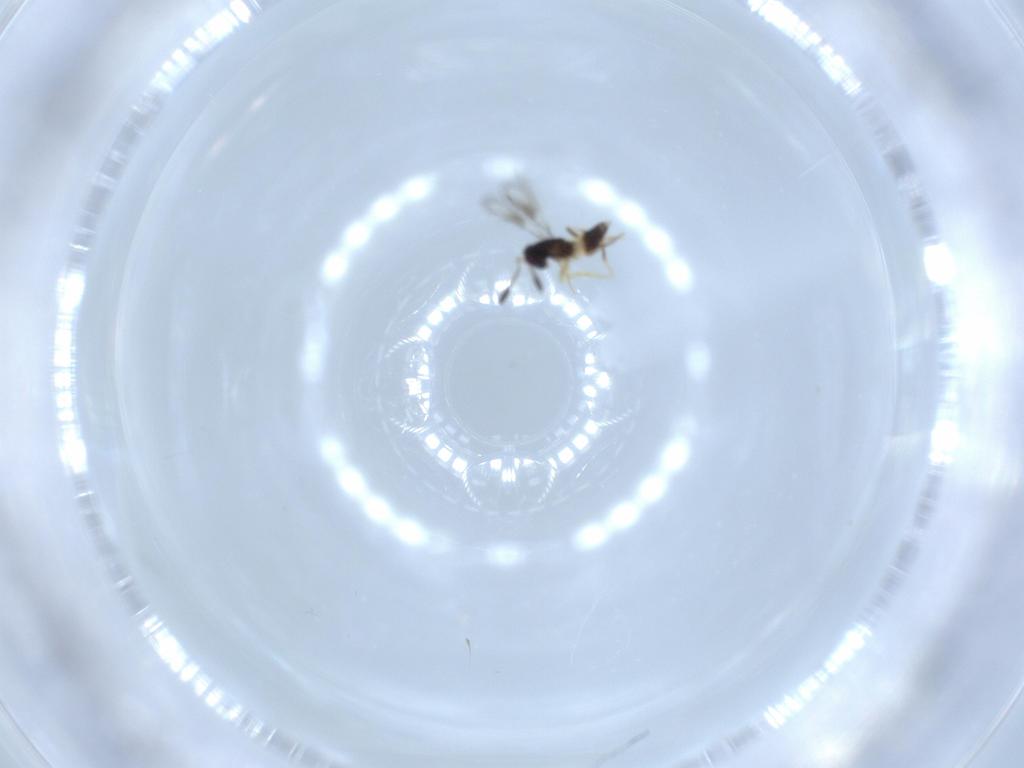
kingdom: Animalia
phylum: Arthropoda
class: Insecta
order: Hymenoptera
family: Mymaridae
